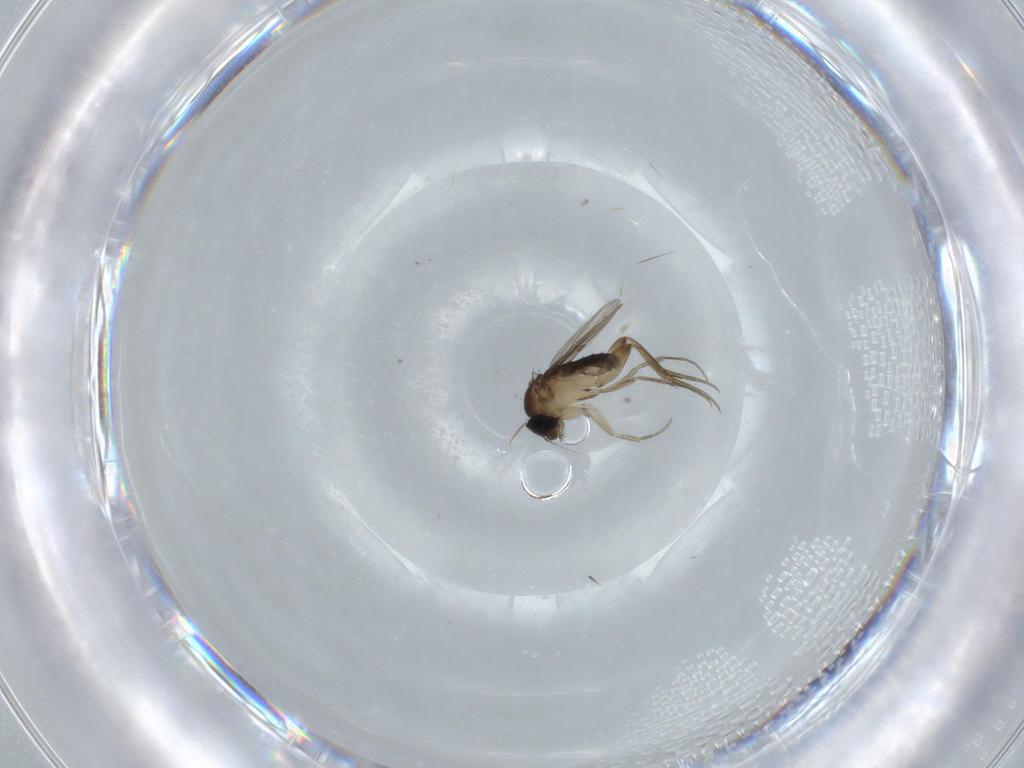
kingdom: Animalia
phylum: Arthropoda
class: Insecta
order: Diptera
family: Phoridae
